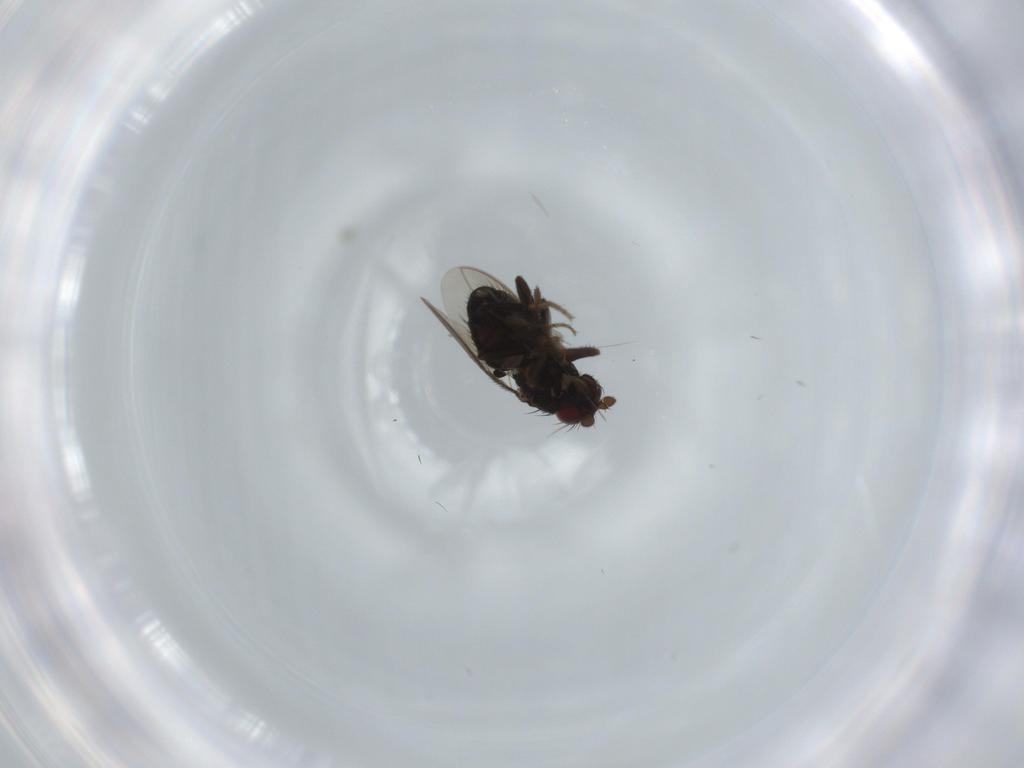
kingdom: Animalia
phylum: Arthropoda
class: Insecta
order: Diptera
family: Sphaeroceridae
